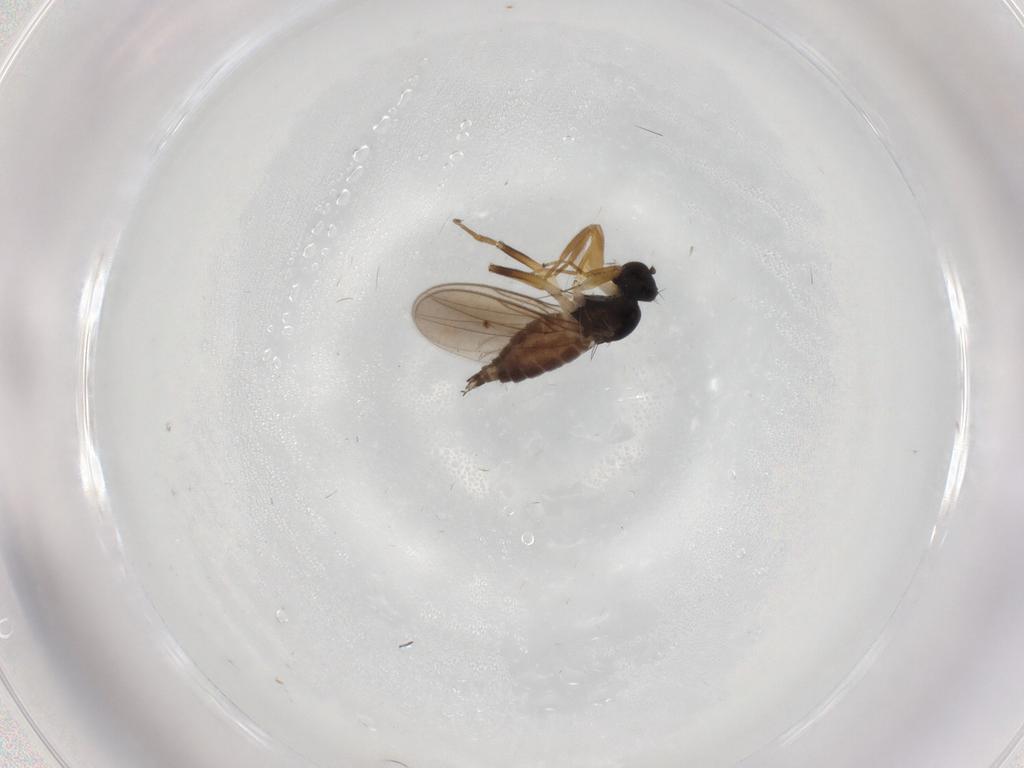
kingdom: Animalia
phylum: Arthropoda
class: Insecta
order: Diptera
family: Hybotidae
